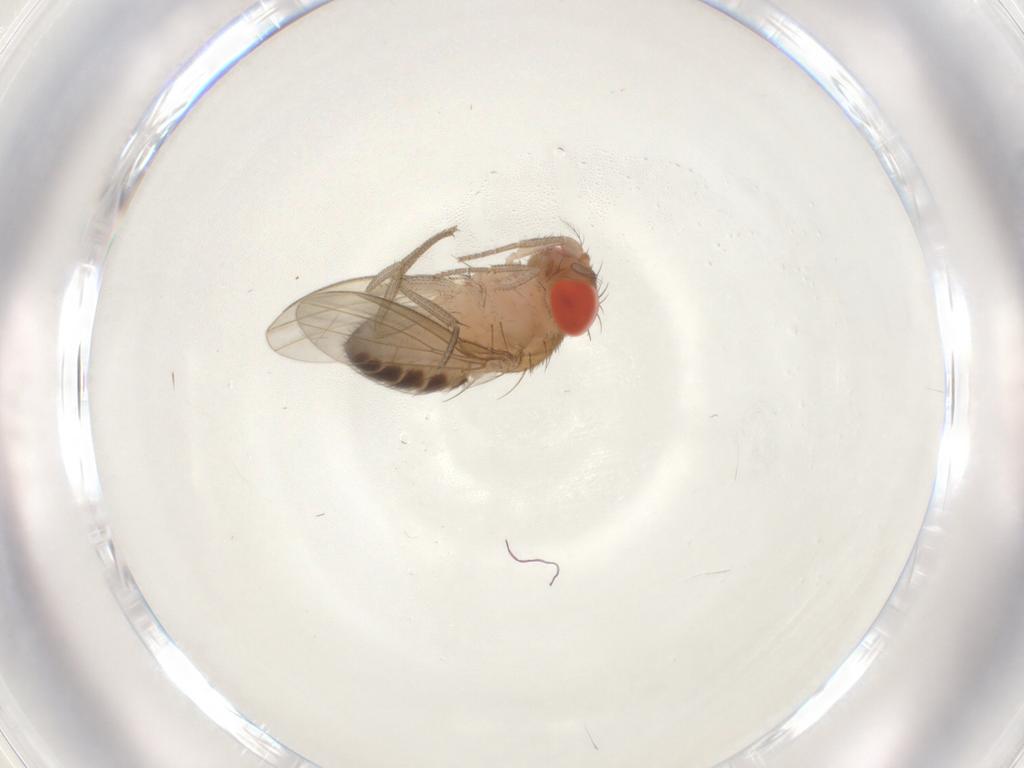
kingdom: Animalia
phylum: Arthropoda
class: Insecta
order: Diptera
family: Drosophilidae
